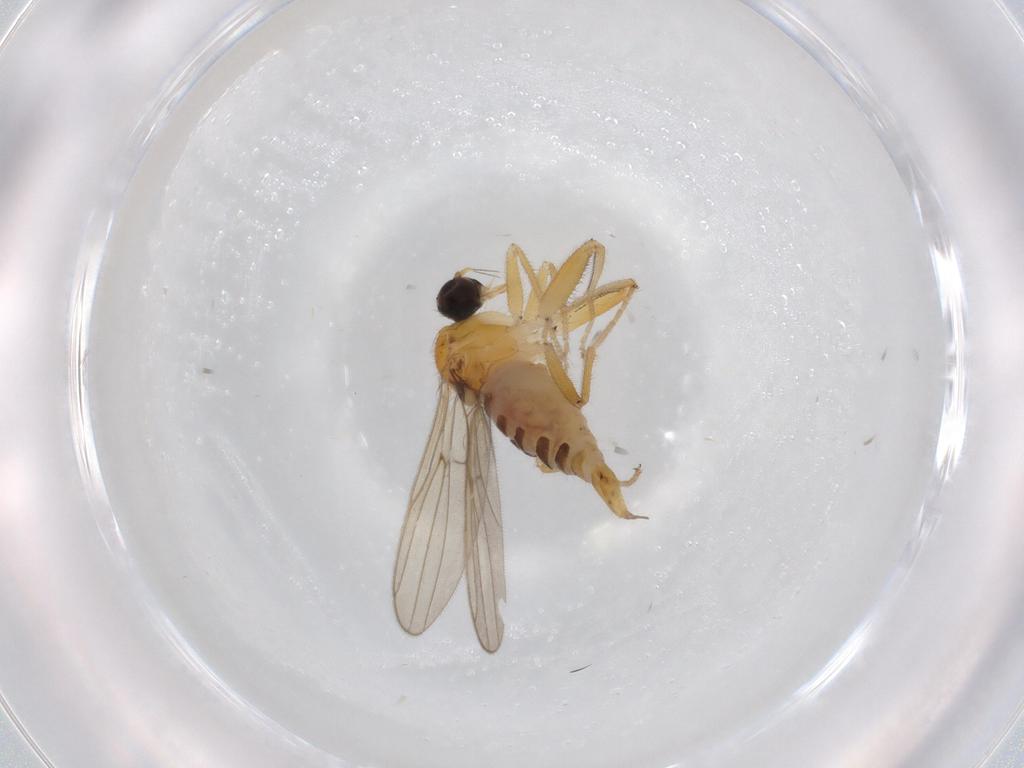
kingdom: Animalia
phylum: Arthropoda
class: Insecta
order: Diptera
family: Hybotidae
